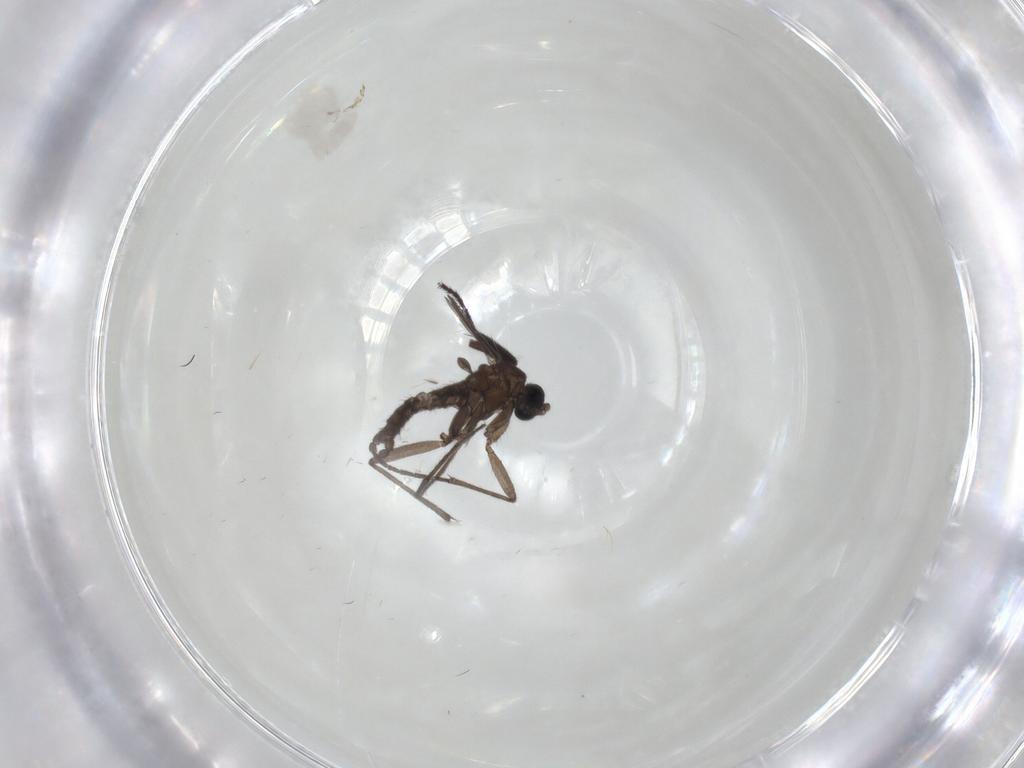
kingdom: Animalia
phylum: Arthropoda
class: Insecta
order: Diptera
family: Sciaridae
